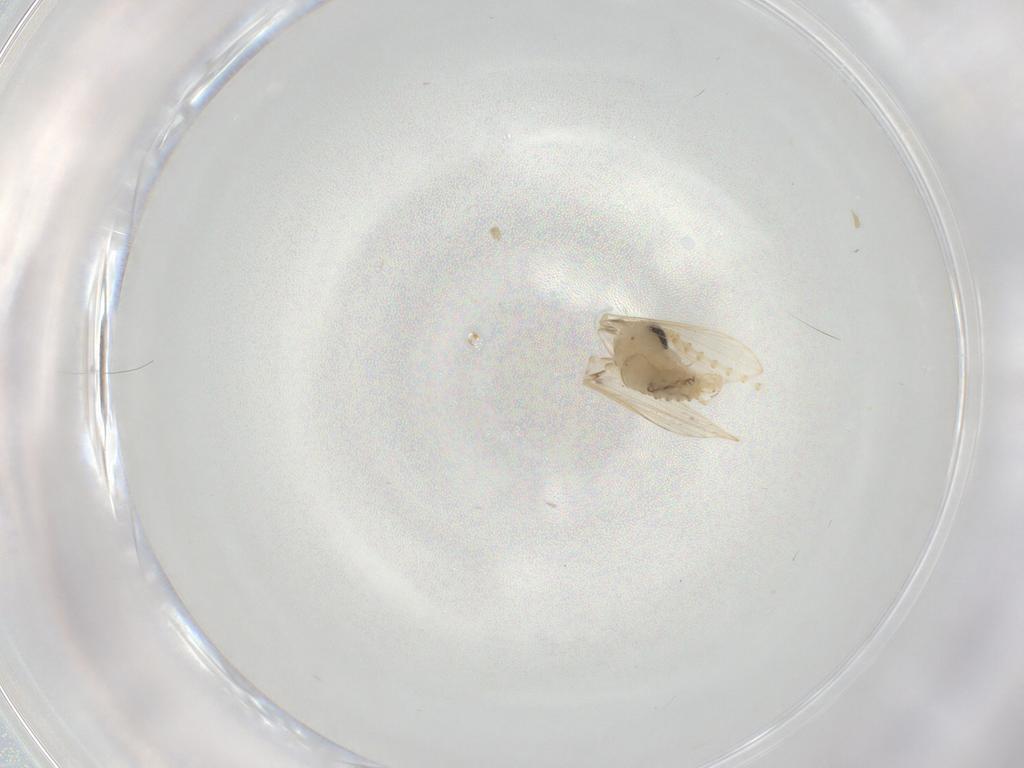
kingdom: Animalia
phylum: Arthropoda
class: Insecta
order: Diptera
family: Psychodidae
